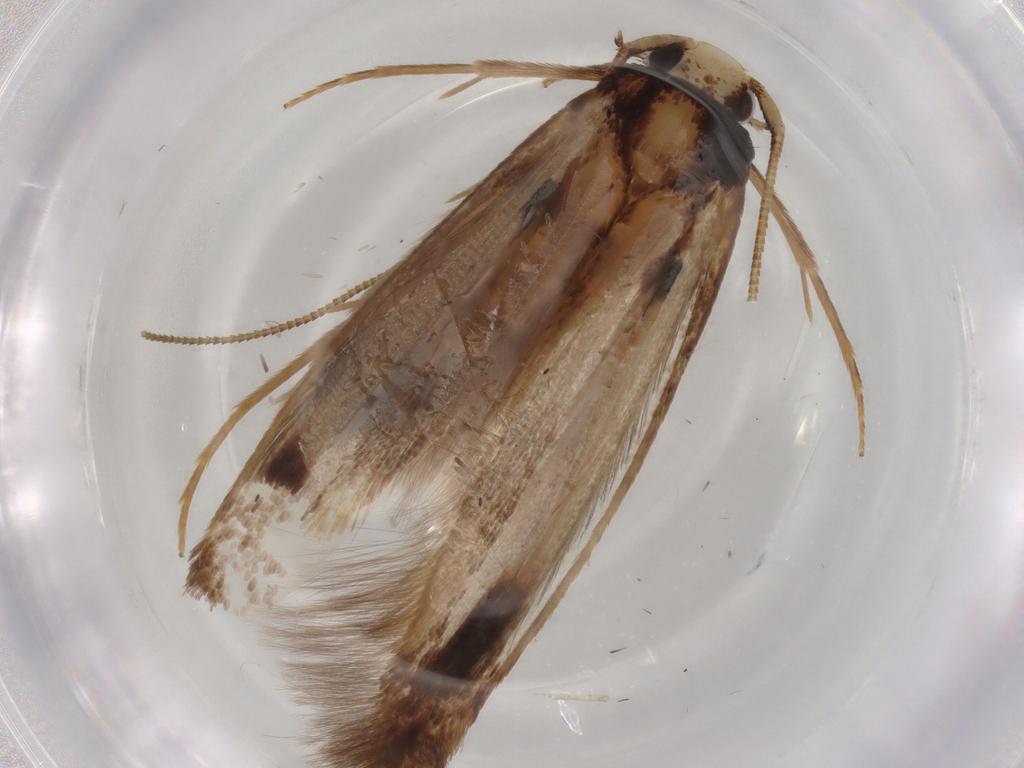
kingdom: Animalia
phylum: Arthropoda
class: Insecta
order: Lepidoptera
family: Tineidae
